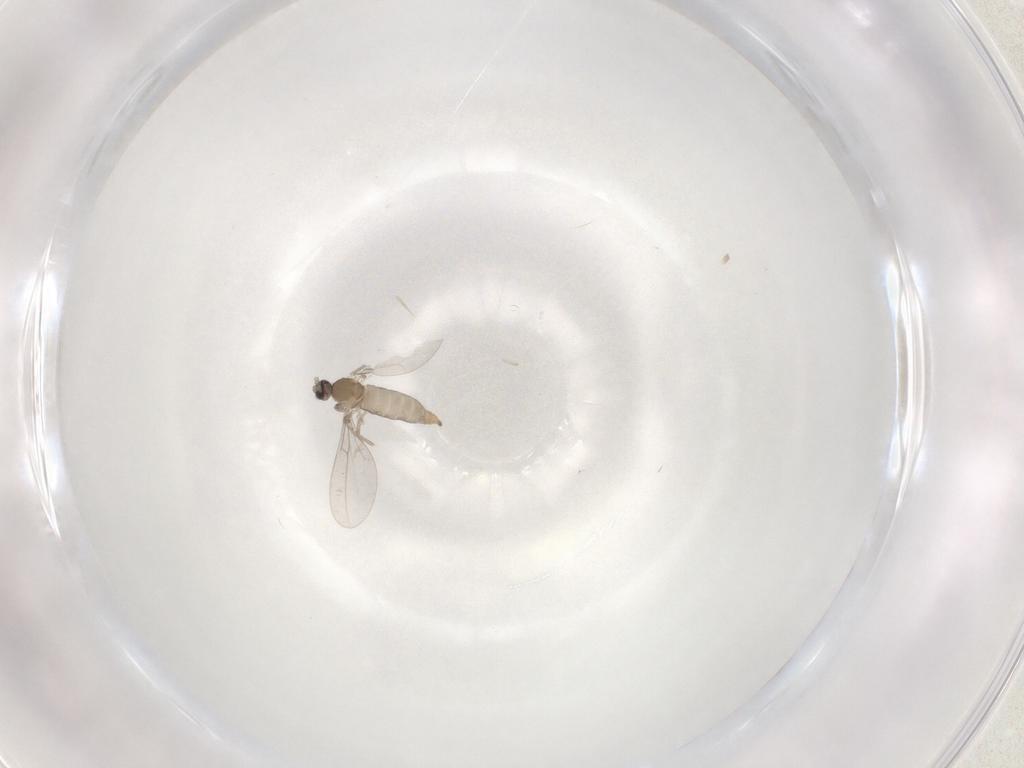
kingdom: Animalia
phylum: Arthropoda
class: Insecta
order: Diptera
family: Cecidomyiidae
